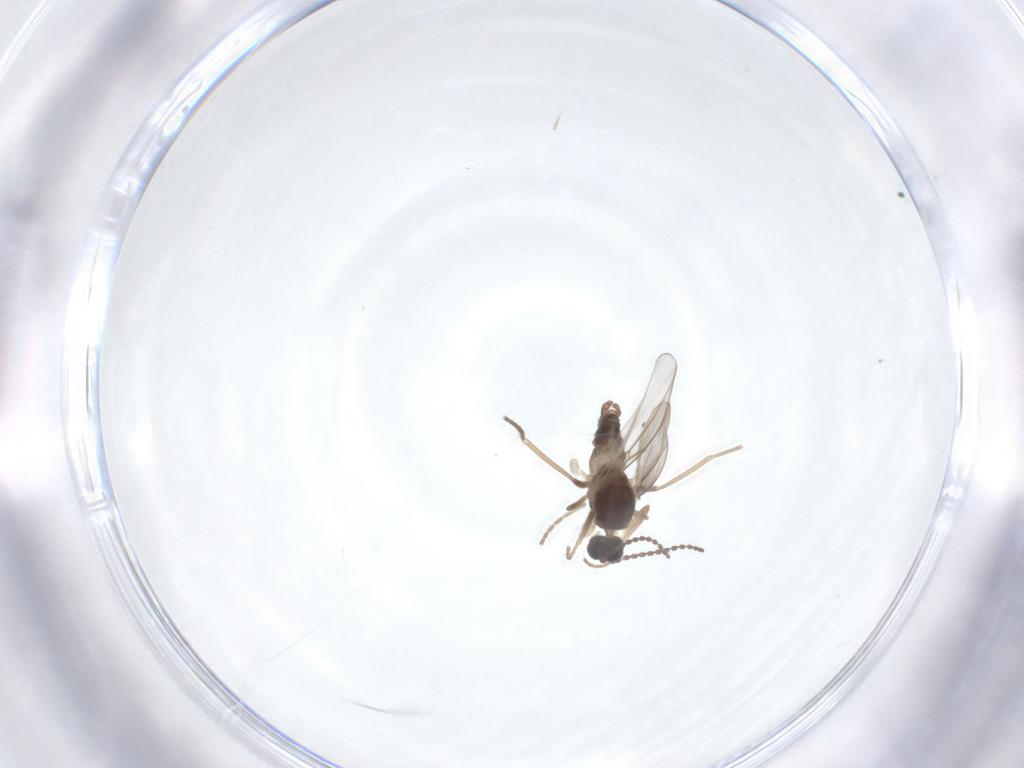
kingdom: Animalia
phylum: Arthropoda
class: Insecta
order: Diptera
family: Cecidomyiidae
